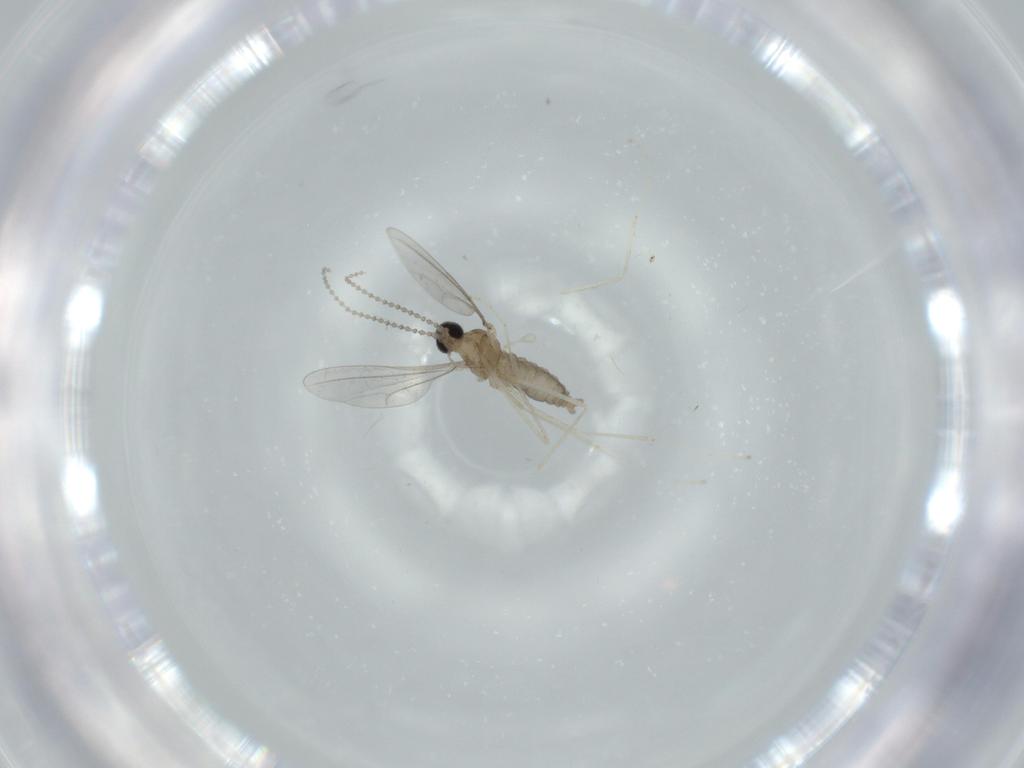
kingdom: Animalia
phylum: Arthropoda
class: Insecta
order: Diptera
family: Cecidomyiidae
